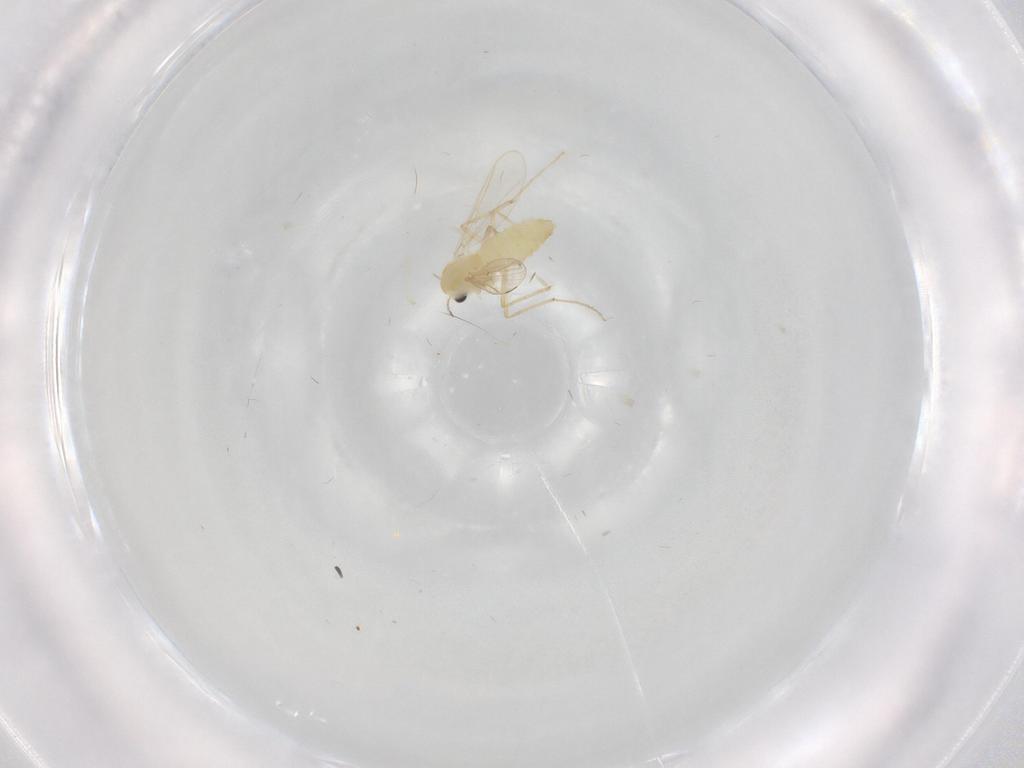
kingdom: Animalia
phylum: Arthropoda
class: Insecta
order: Diptera
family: Chironomidae
